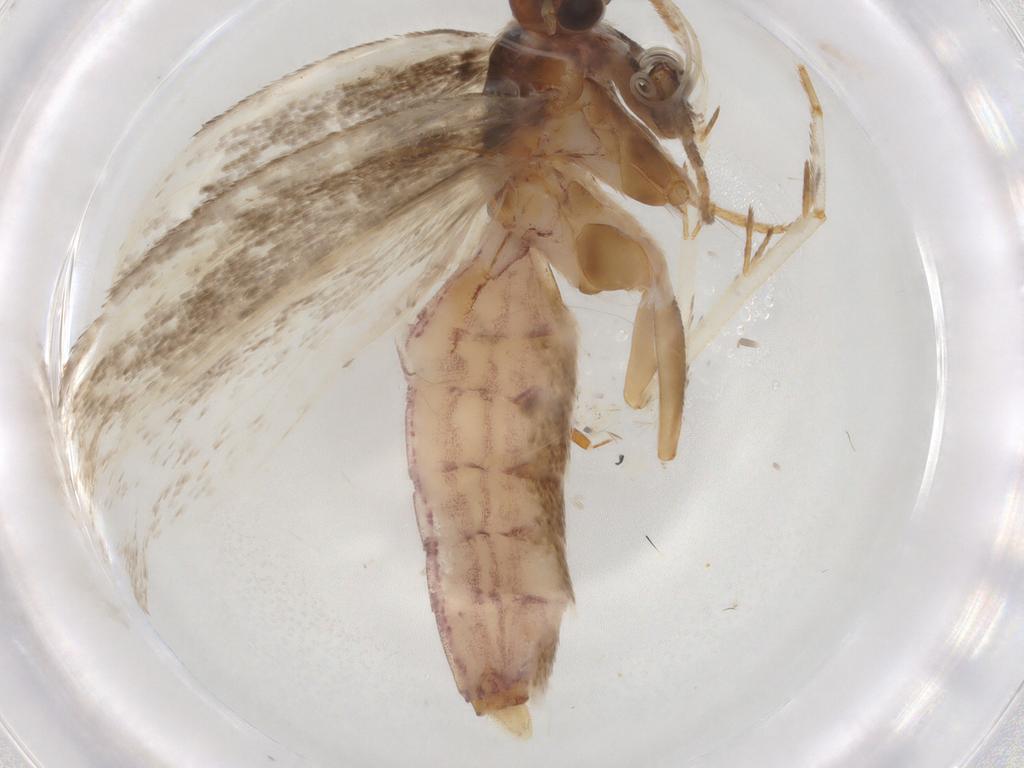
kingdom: Animalia
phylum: Arthropoda
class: Insecta
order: Lepidoptera
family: Gelechiidae
